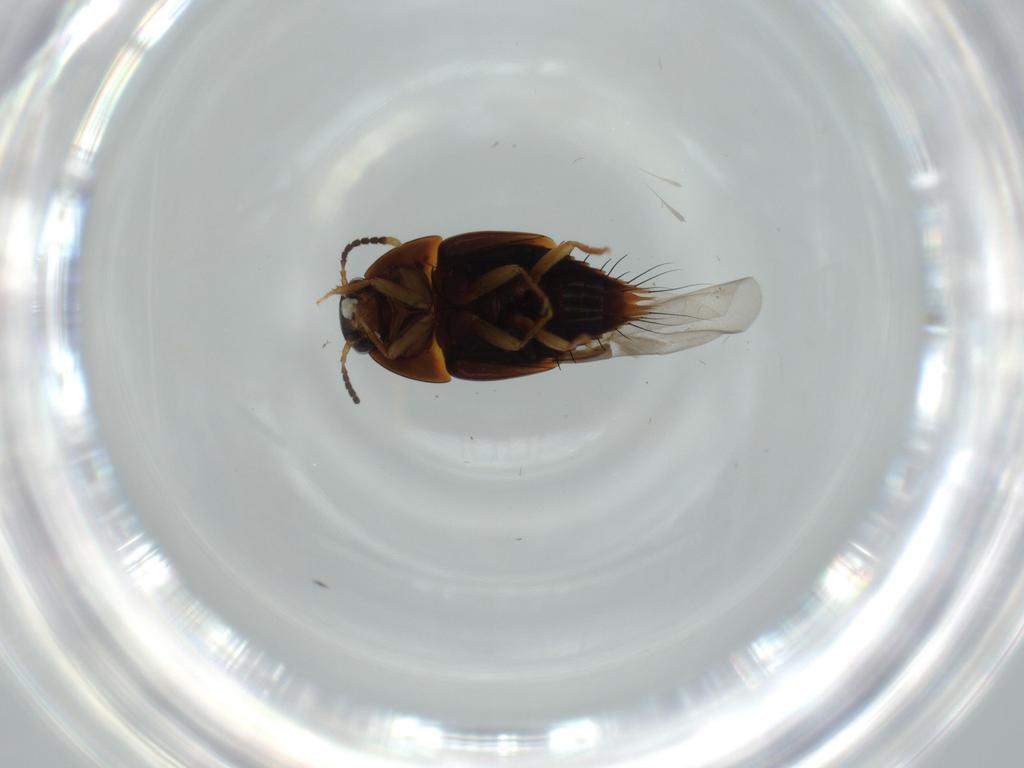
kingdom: Animalia
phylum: Arthropoda
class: Insecta
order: Coleoptera
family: Staphylinidae
